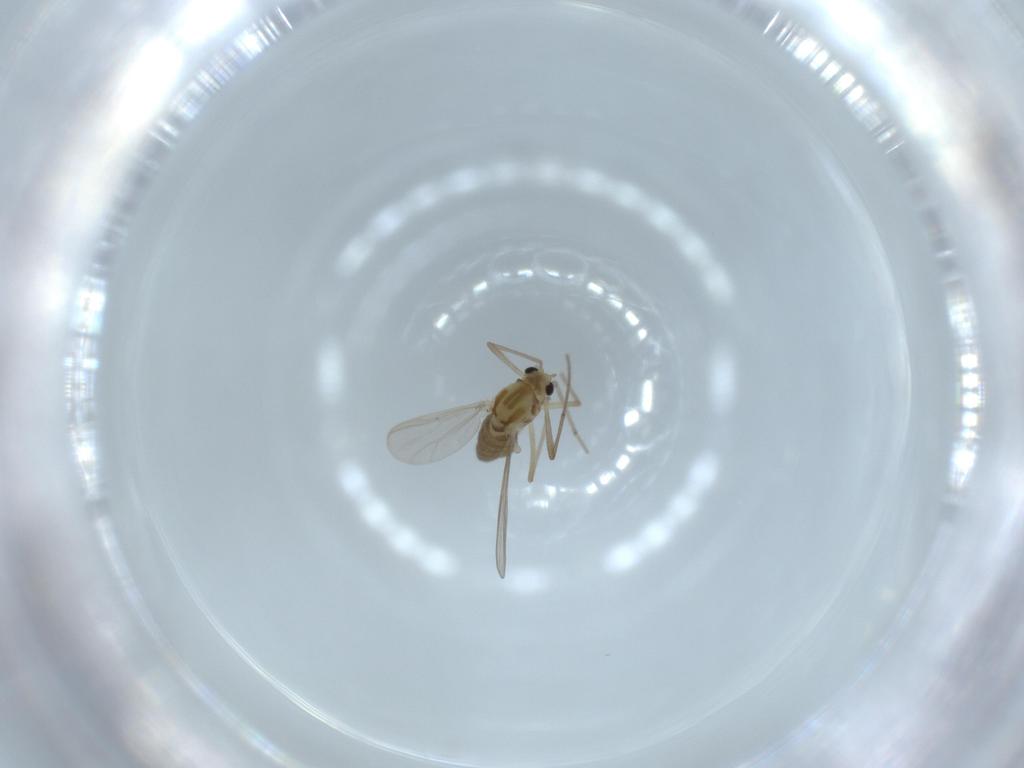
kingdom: Animalia
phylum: Arthropoda
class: Insecta
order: Diptera
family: Chironomidae
